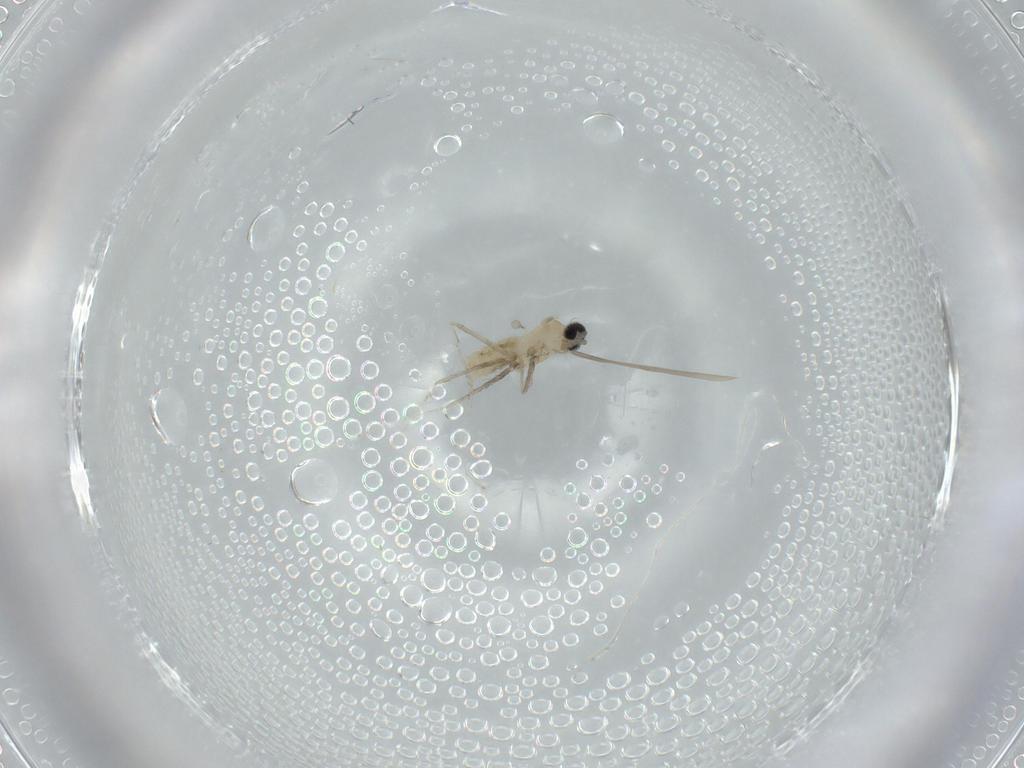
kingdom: Animalia
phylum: Arthropoda
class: Insecta
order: Diptera
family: Cecidomyiidae
